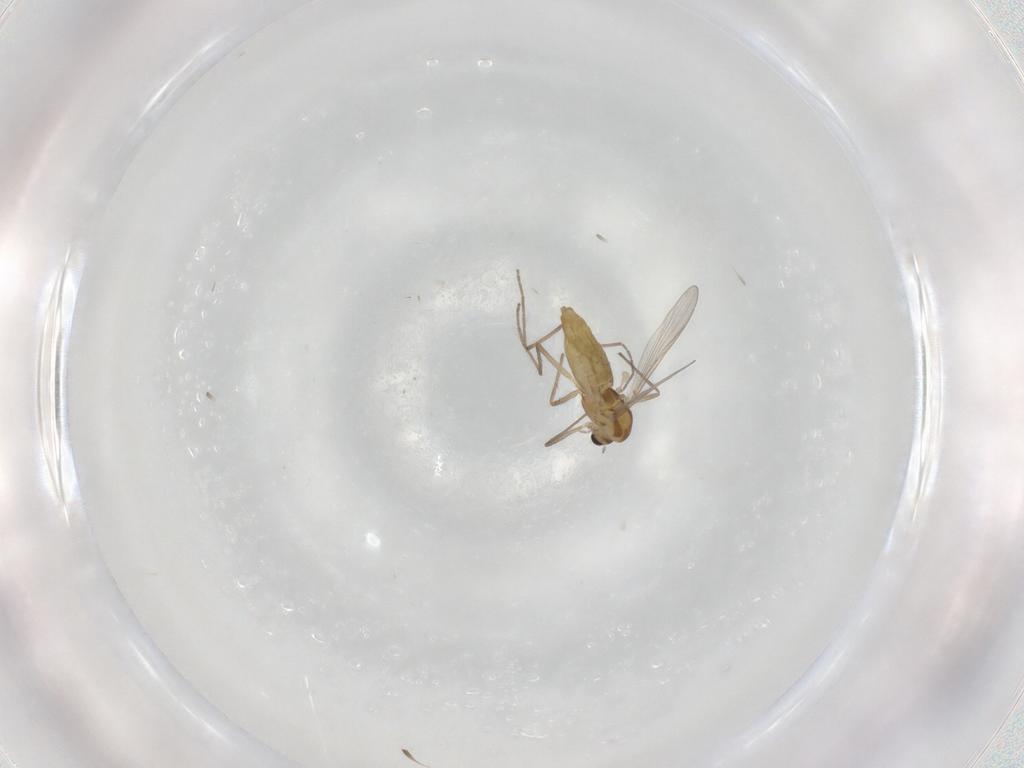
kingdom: Animalia
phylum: Arthropoda
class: Insecta
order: Diptera
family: Chironomidae
